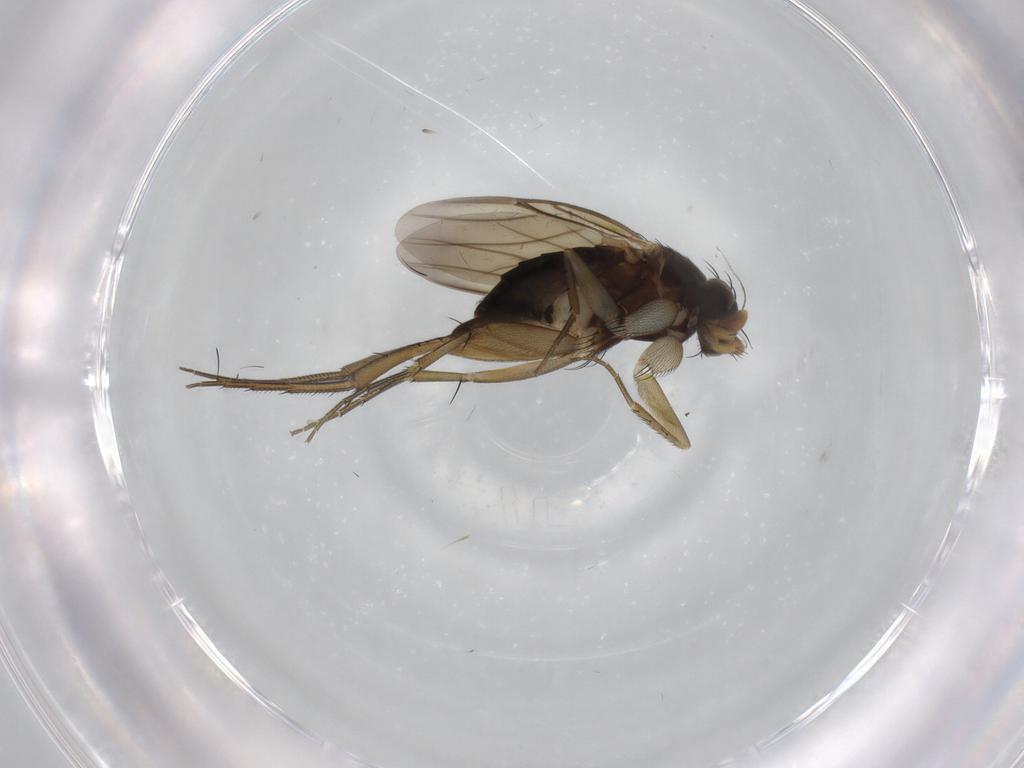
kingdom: Animalia
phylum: Arthropoda
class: Insecta
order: Diptera
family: Phoridae
